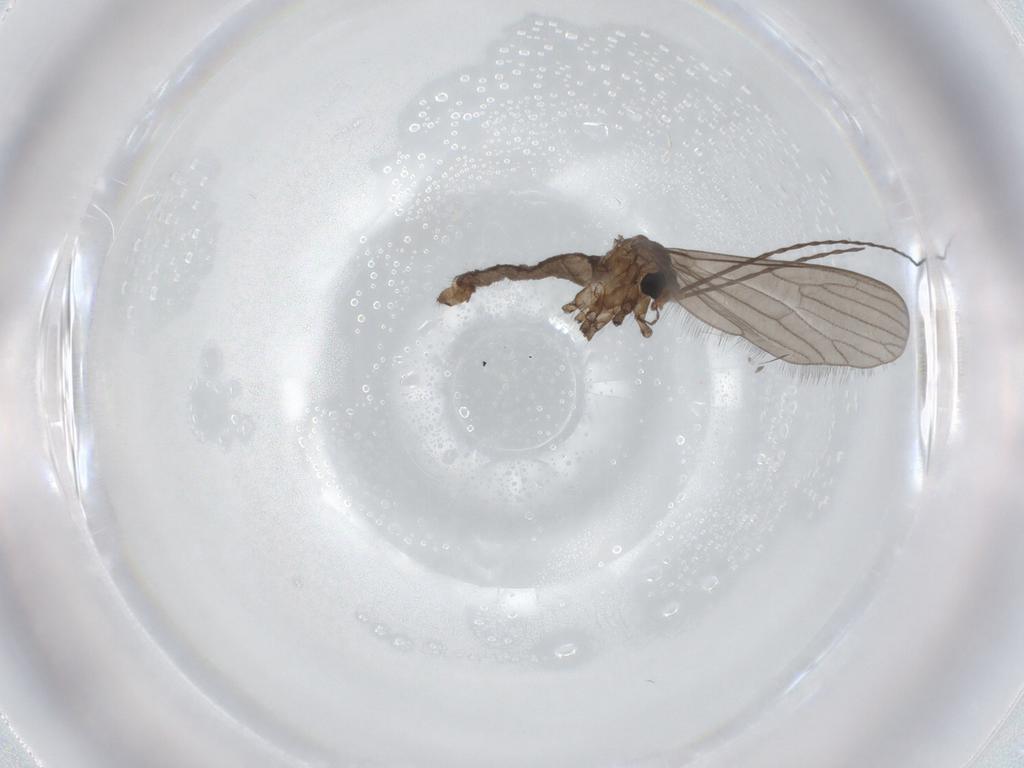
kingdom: Animalia
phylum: Arthropoda
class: Insecta
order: Diptera
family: Cecidomyiidae
